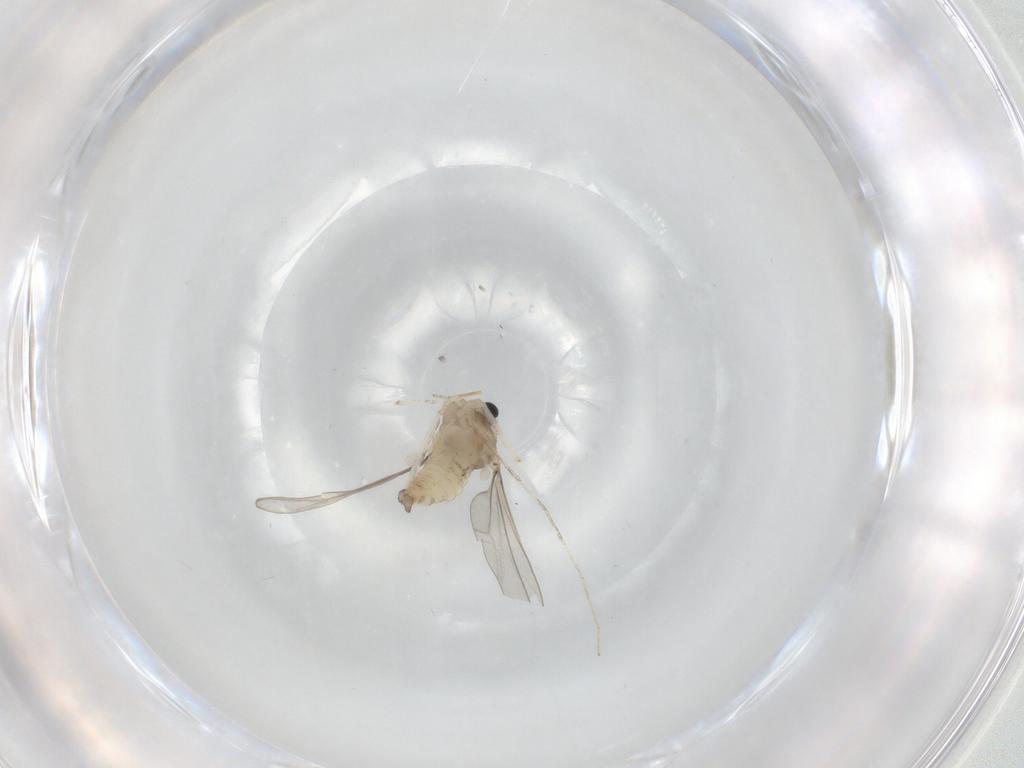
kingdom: Animalia
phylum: Arthropoda
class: Insecta
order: Diptera
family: Cecidomyiidae
